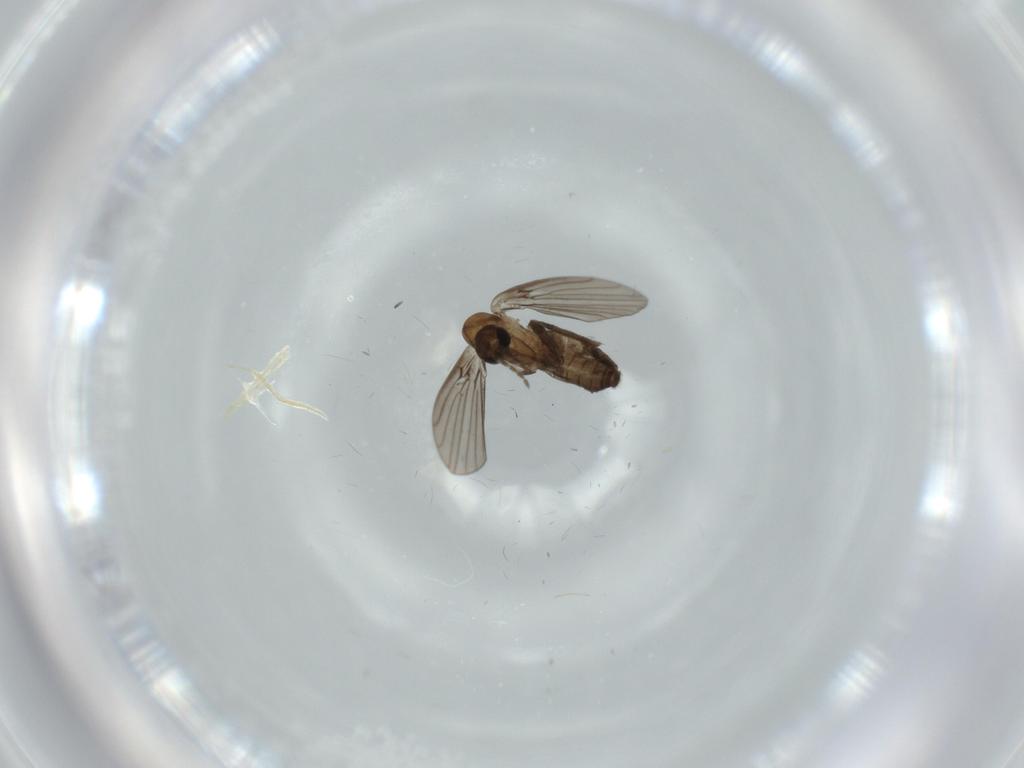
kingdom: Animalia
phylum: Arthropoda
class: Insecta
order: Diptera
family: Psychodidae
